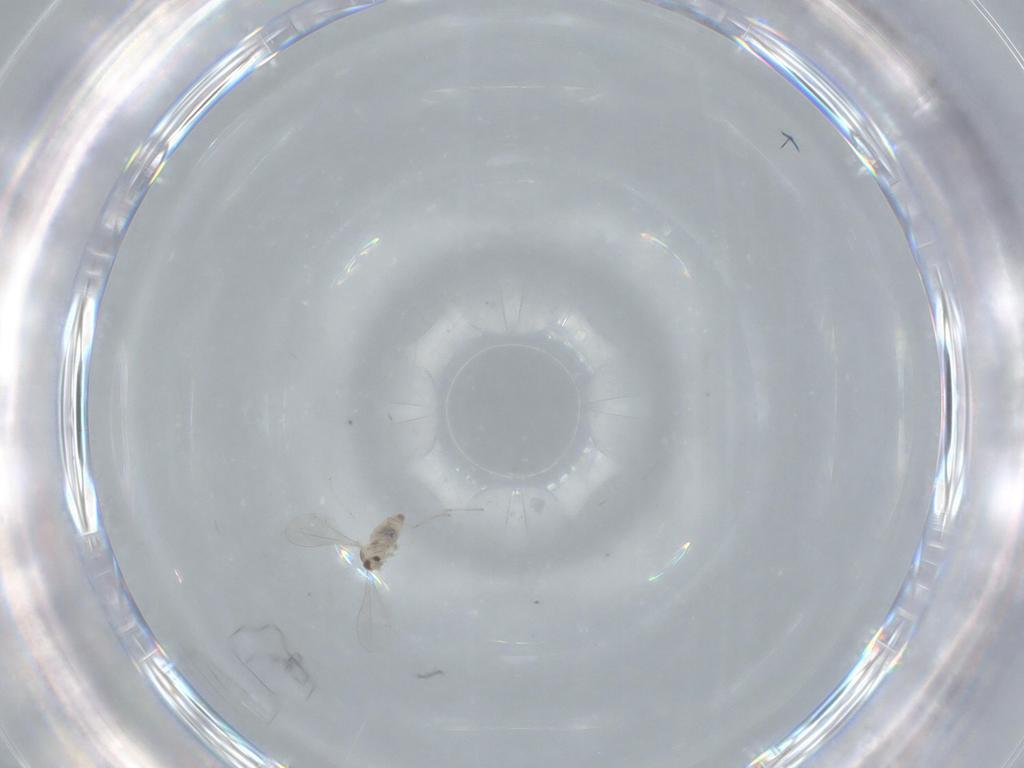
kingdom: Animalia
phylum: Arthropoda
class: Insecta
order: Diptera
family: Cecidomyiidae
